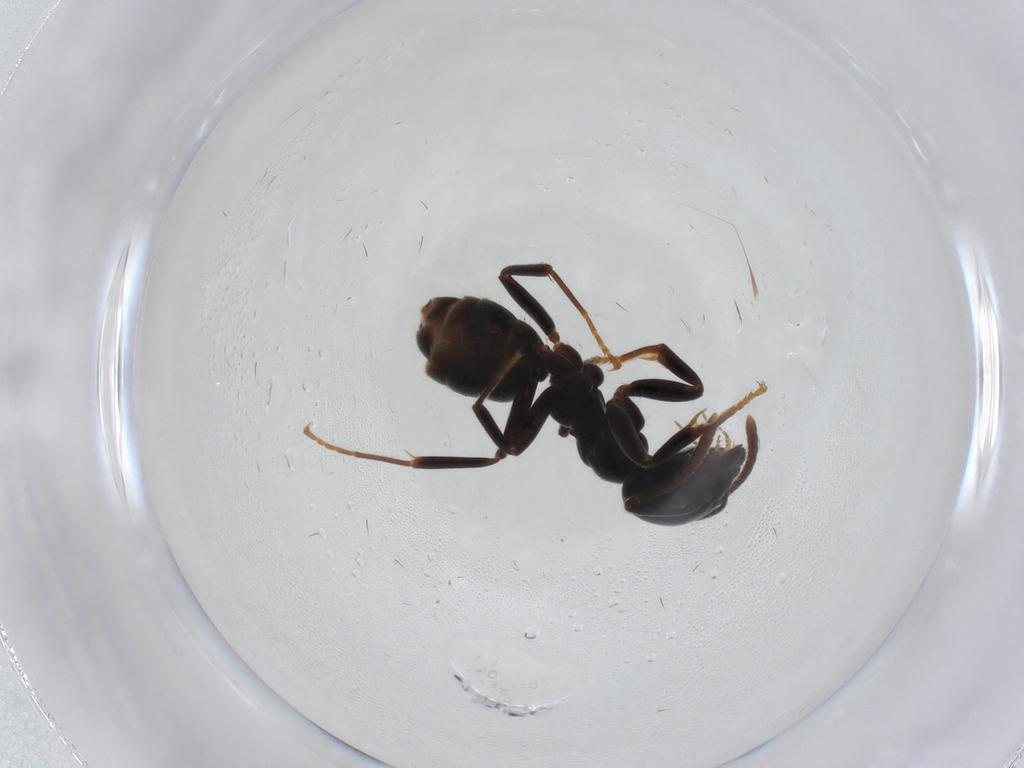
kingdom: Animalia
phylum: Arthropoda
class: Insecta
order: Hymenoptera
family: Formicidae
